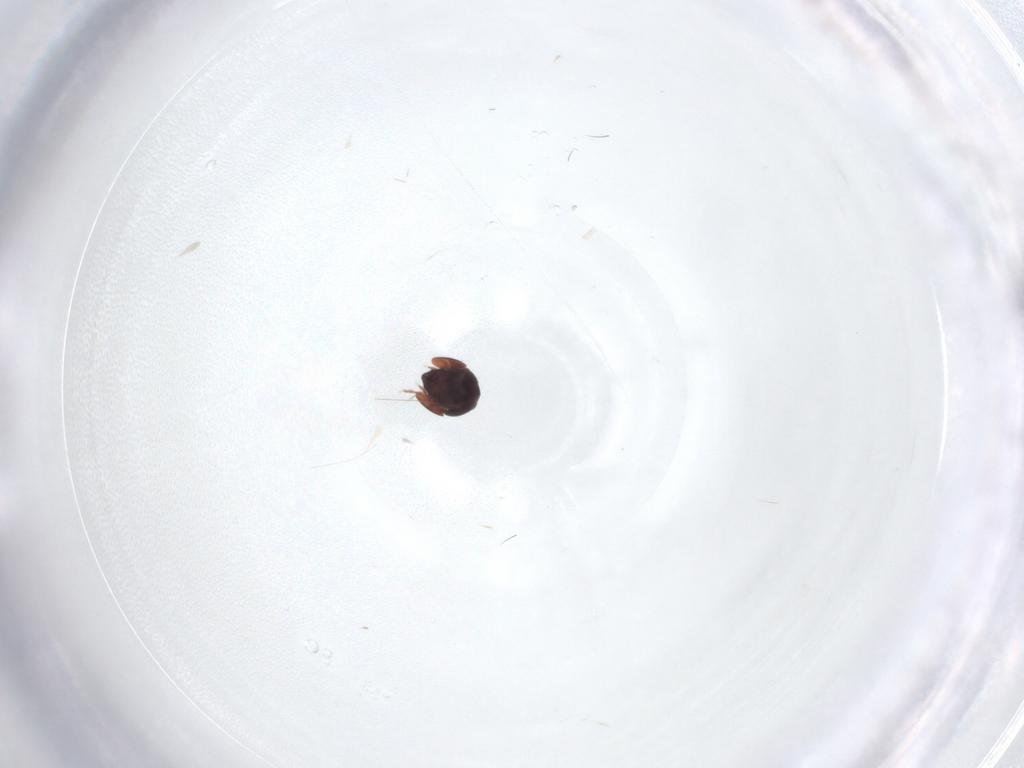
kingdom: Animalia
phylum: Arthropoda
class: Arachnida
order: Sarcoptiformes
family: Galumnidae
